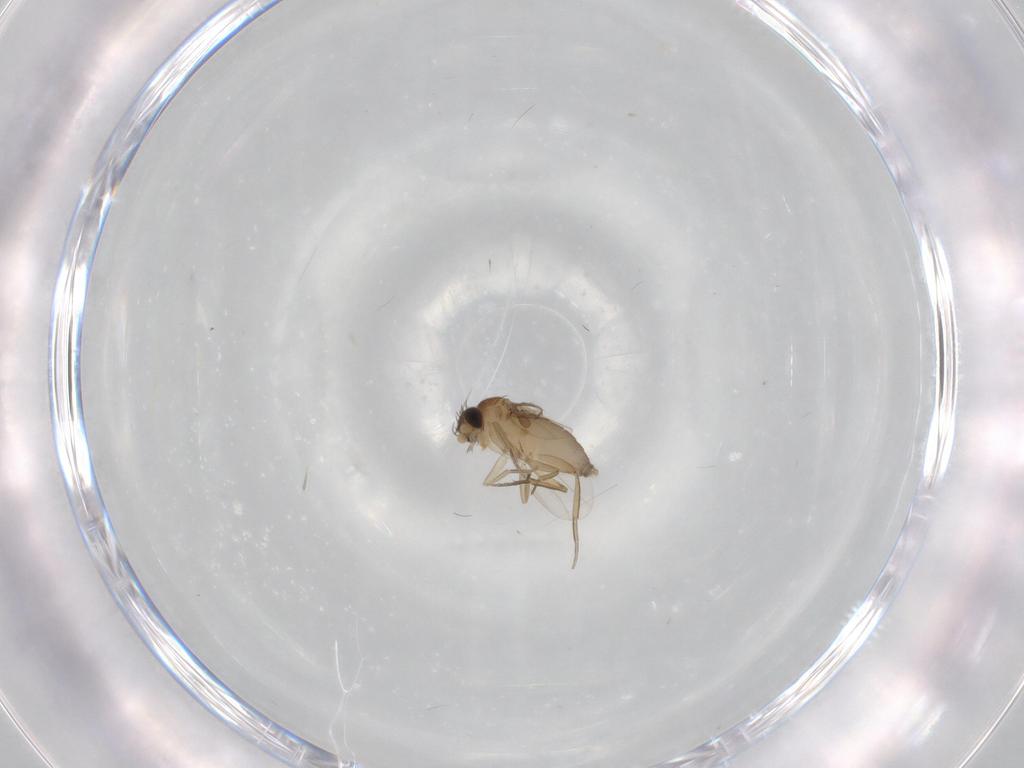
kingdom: Animalia
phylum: Arthropoda
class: Insecta
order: Diptera
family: Phoridae
